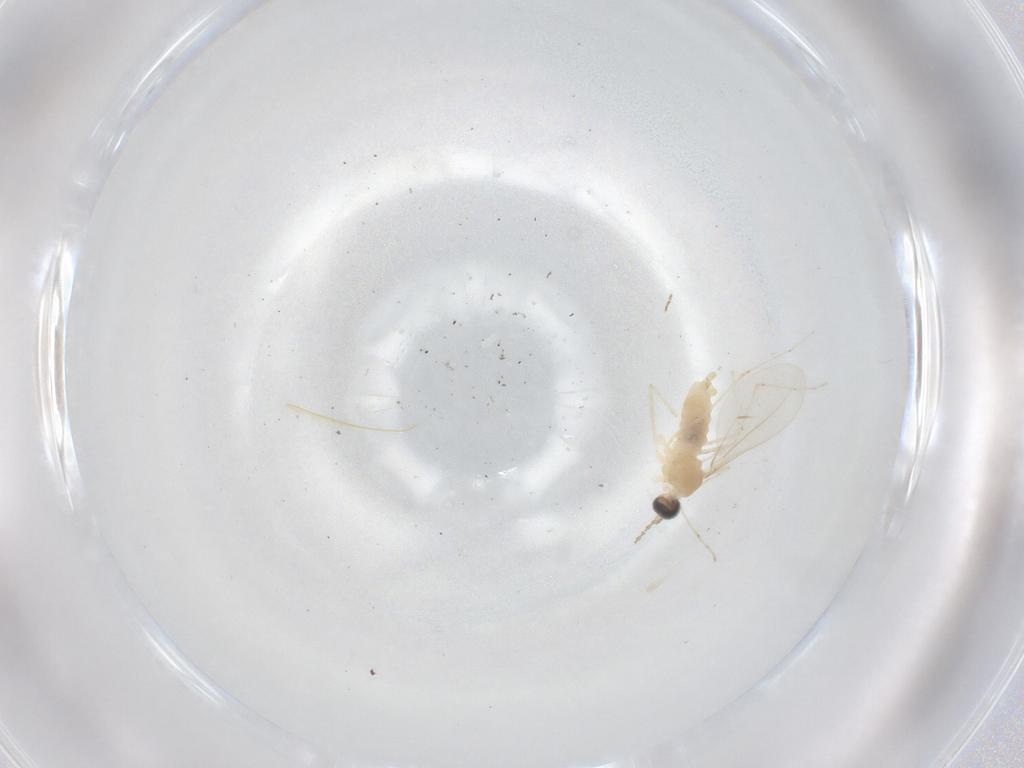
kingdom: Animalia
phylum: Arthropoda
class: Insecta
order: Diptera
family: Cecidomyiidae
